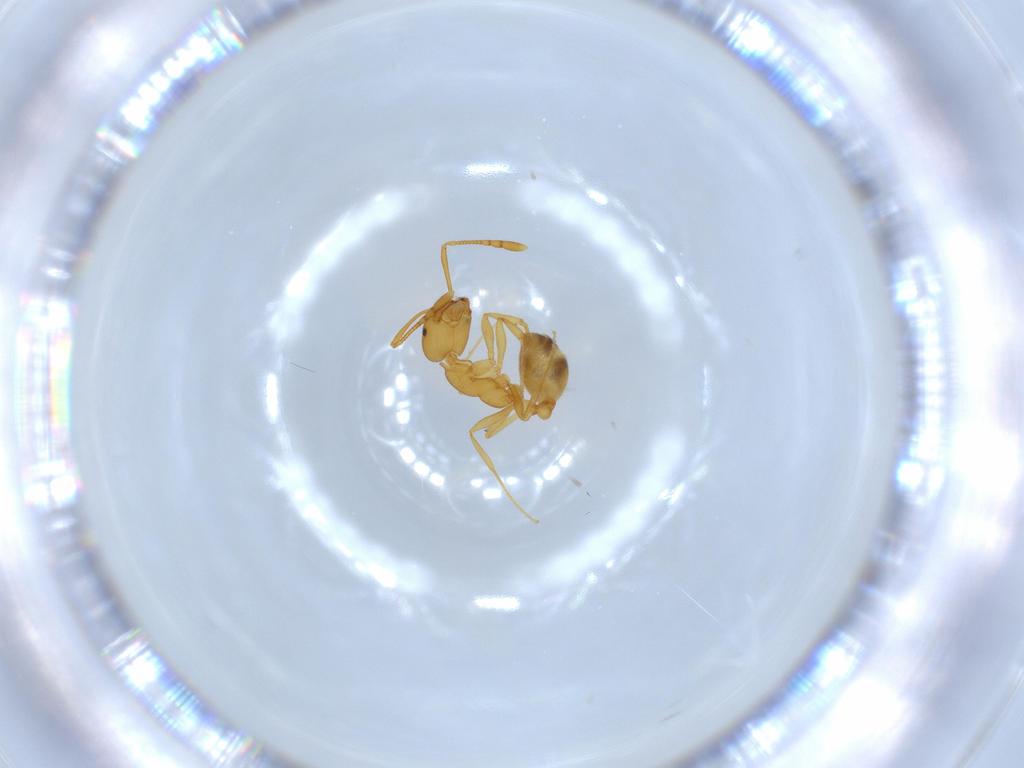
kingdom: Animalia
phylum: Arthropoda
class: Insecta
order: Hymenoptera
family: Formicidae
